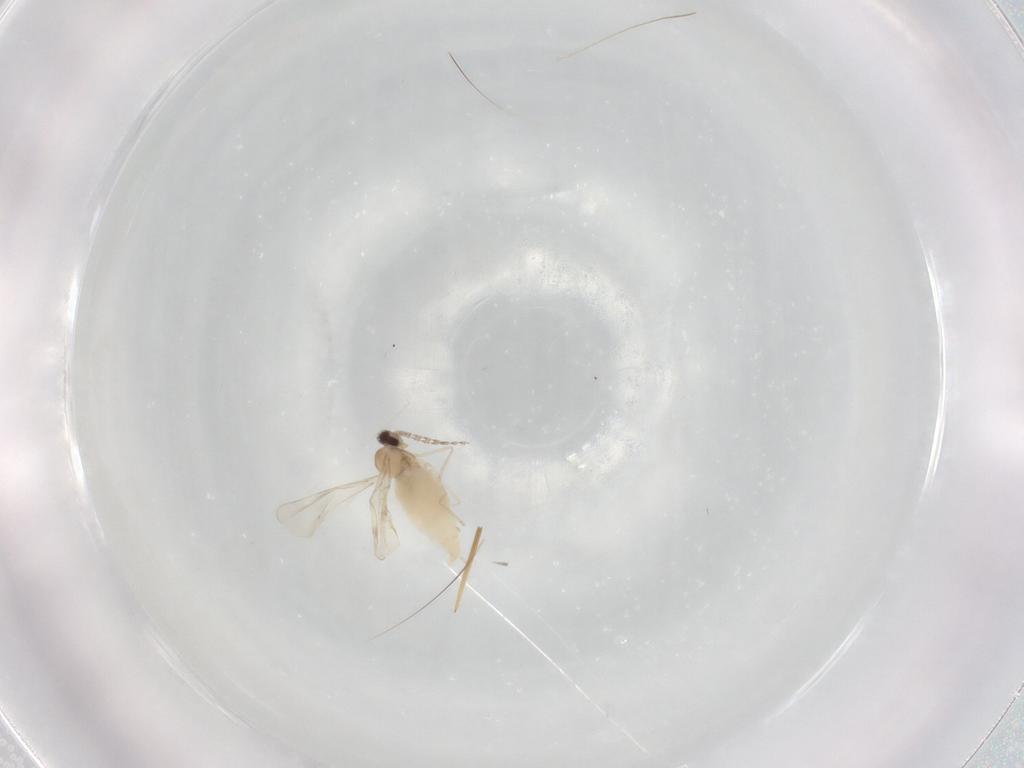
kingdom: Animalia
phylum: Arthropoda
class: Insecta
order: Diptera
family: Cecidomyiidae
